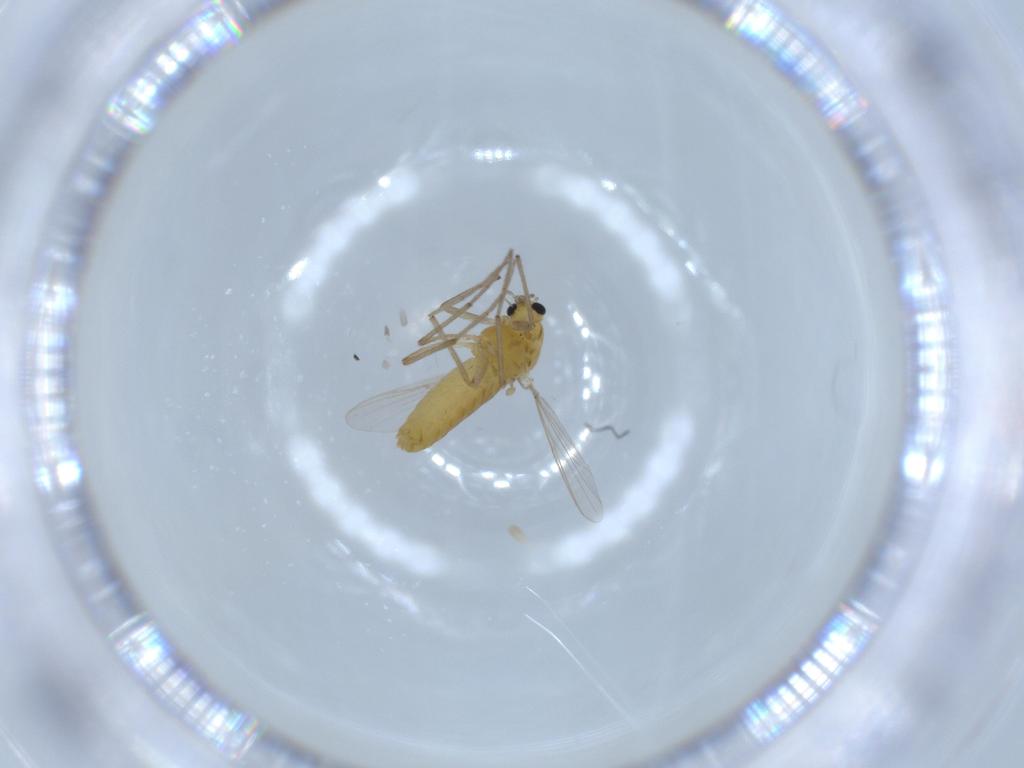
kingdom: Animalia
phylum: Arthropoda
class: Insecta
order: Diptera
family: Chironomidae
